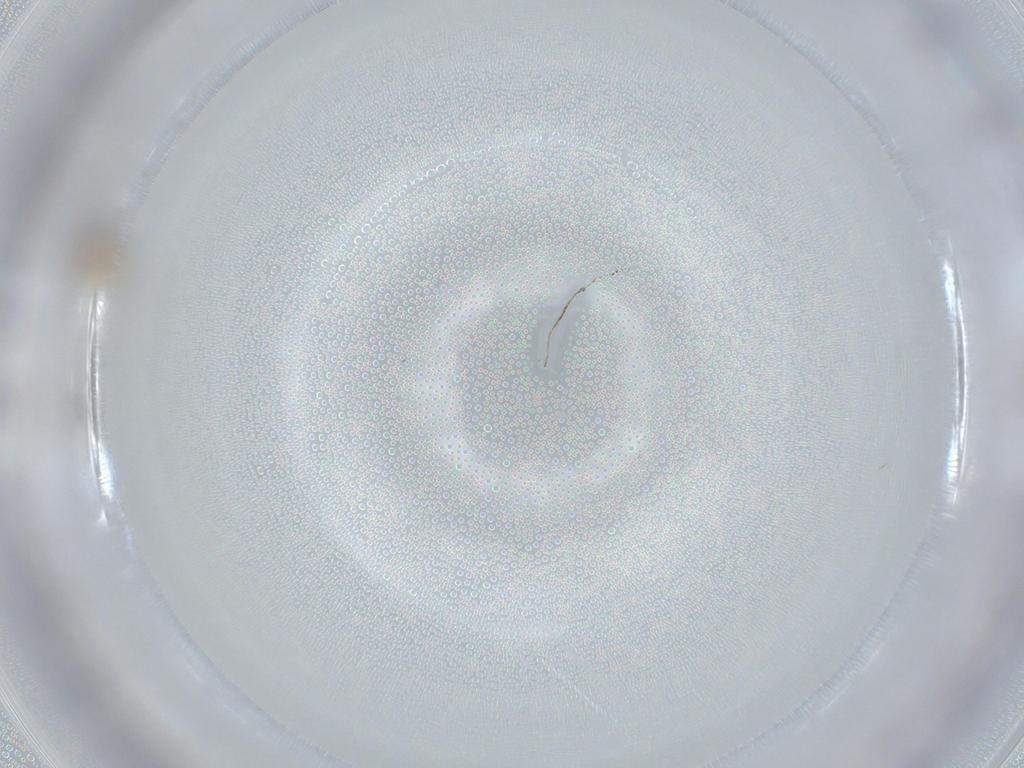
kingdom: Animalia
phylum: Arthropoda
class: Insecta
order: Diptera
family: Cecidomyiidae
